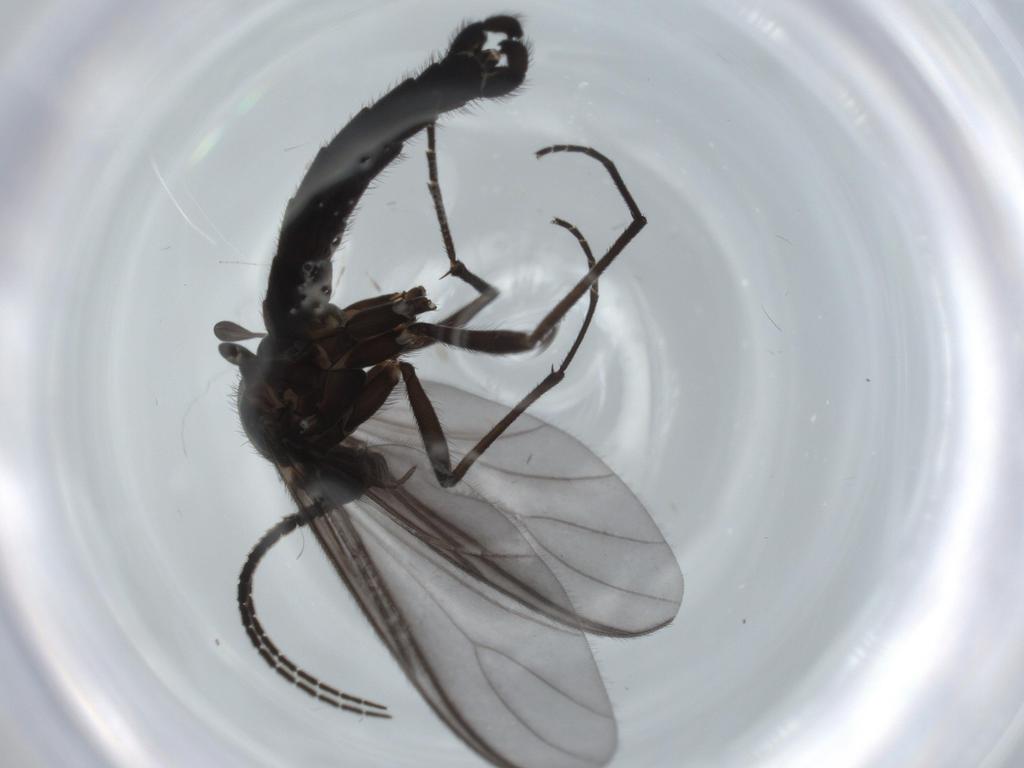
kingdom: Animalia
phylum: Arthropoda
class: Insecta
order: Diptera
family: Cecidomyiidae
